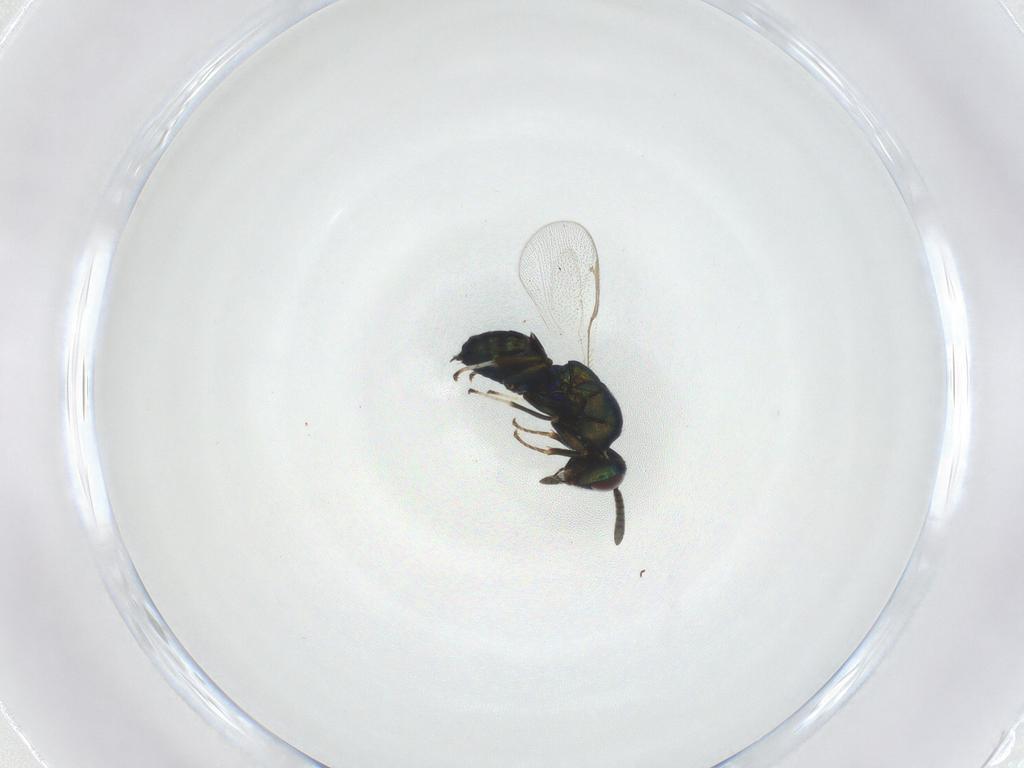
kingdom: Animalia
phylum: Arthropoda
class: Insecta
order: Hymenoptera
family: Torymidae
